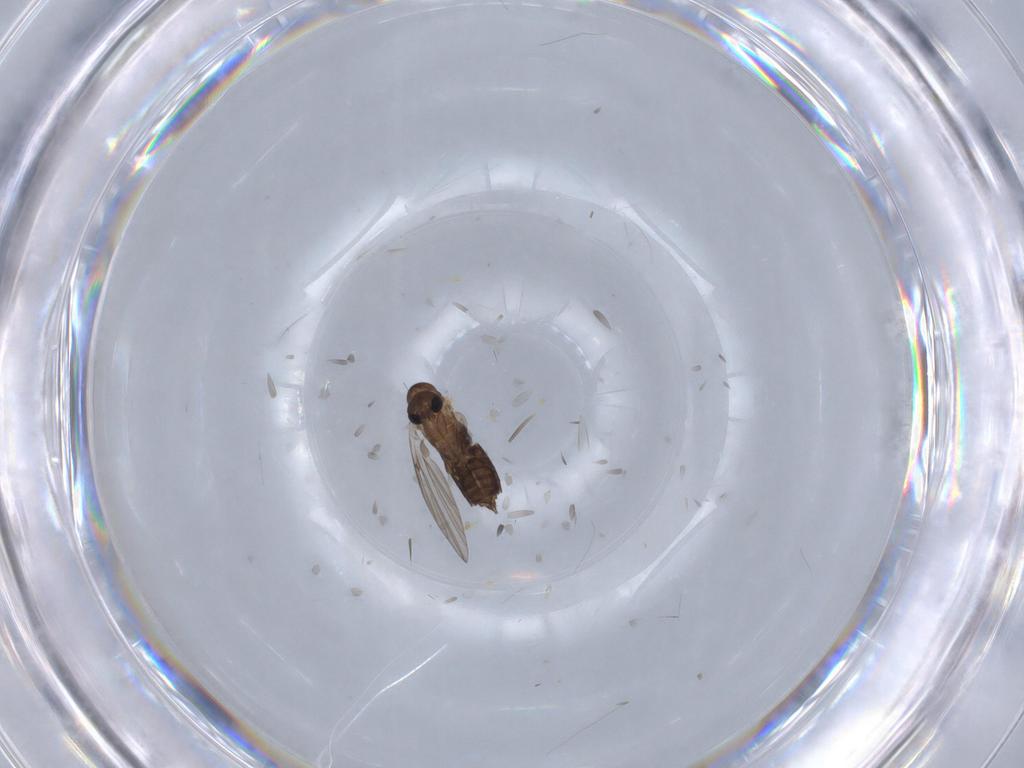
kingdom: Animalia
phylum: Arthropoda
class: Insecta
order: Diptera
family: Psychodidae
